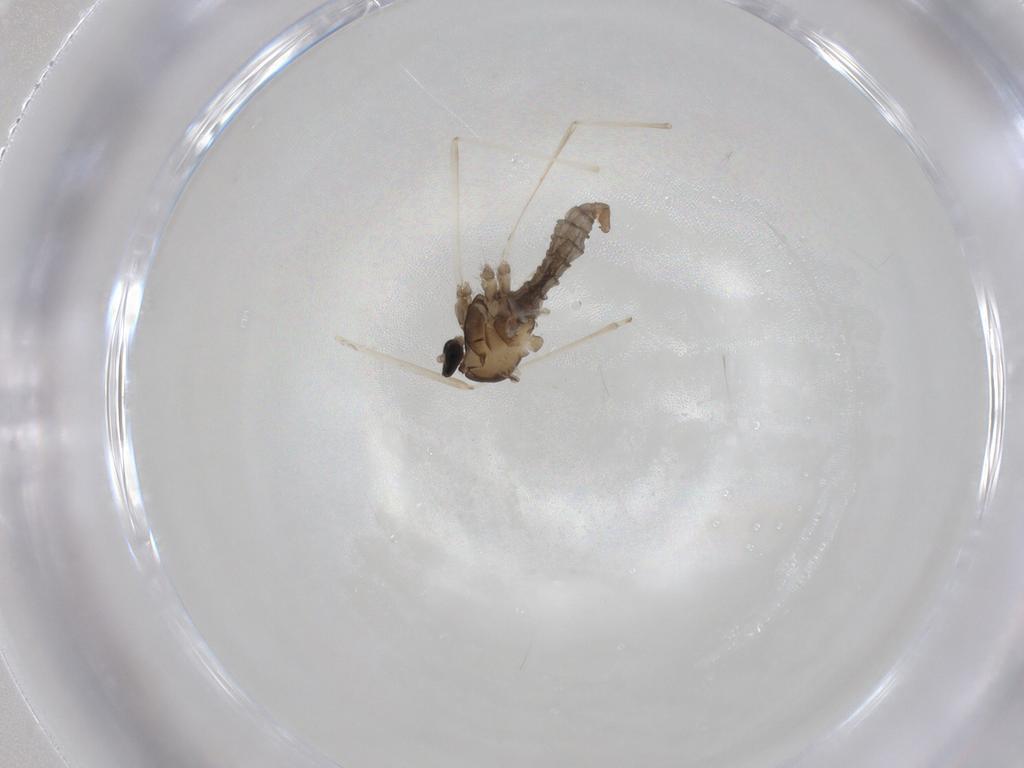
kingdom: Animalia
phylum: Arthropoda
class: Insecta
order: Diptera
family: Cecidomyiidae
